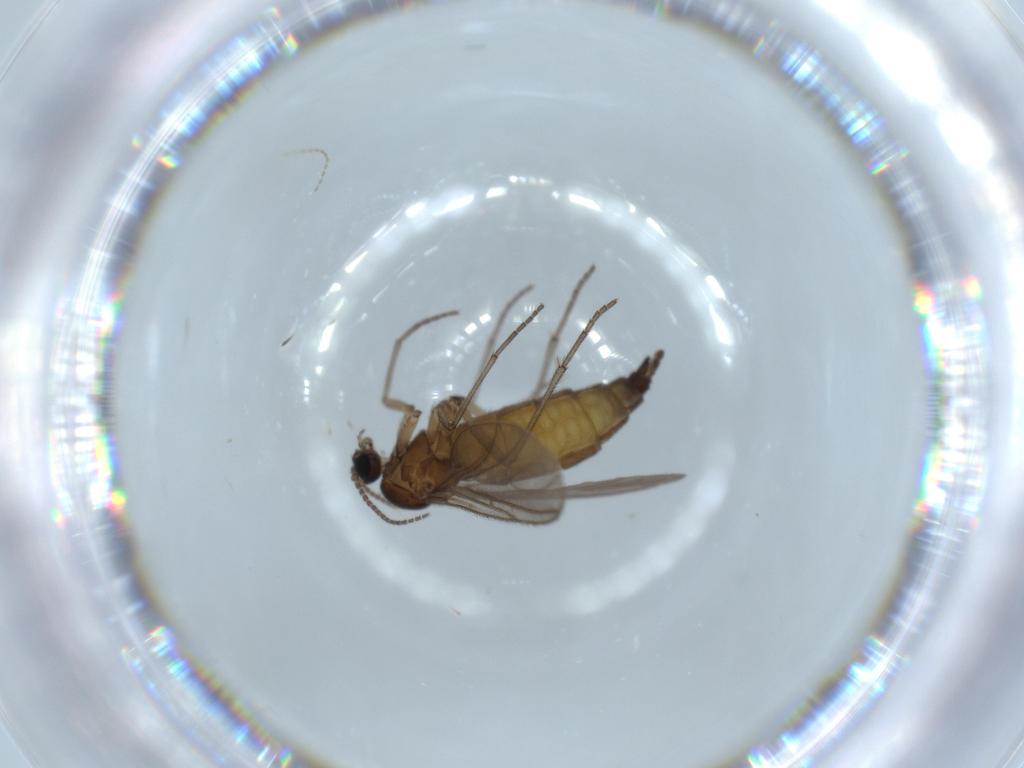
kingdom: Animalia
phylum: Arthropoda
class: Insecta
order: Diptera
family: Sciaridae
